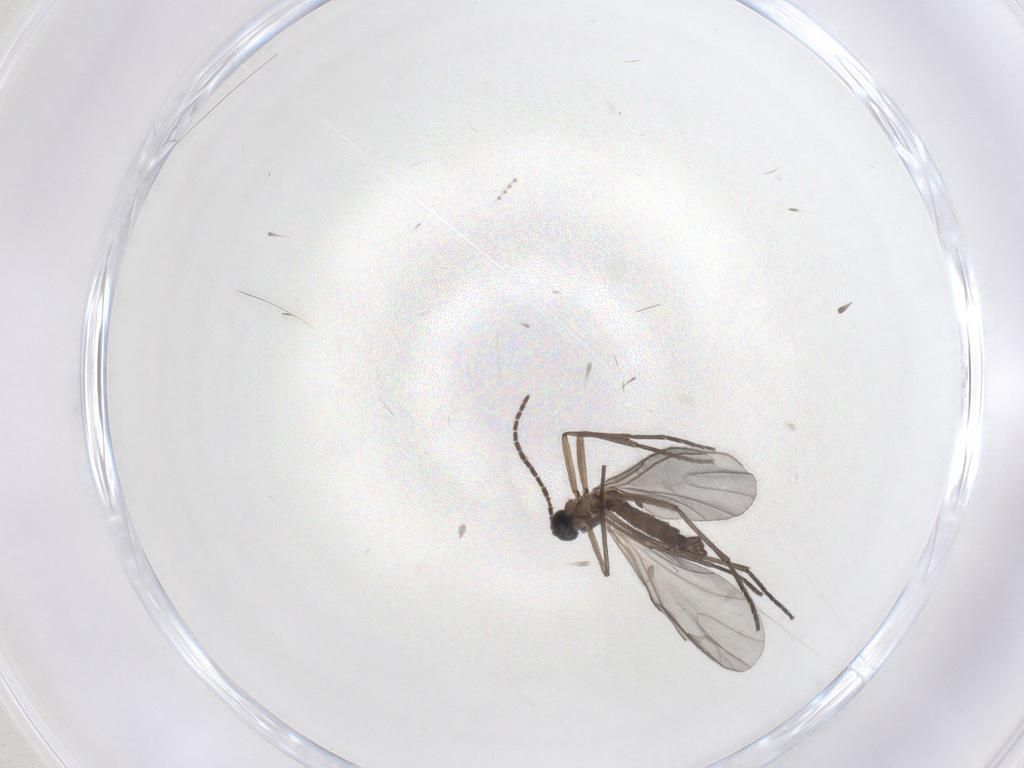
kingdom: Animalia
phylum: Arthropoda
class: Insecta
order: Diptera
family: Sciaridae
